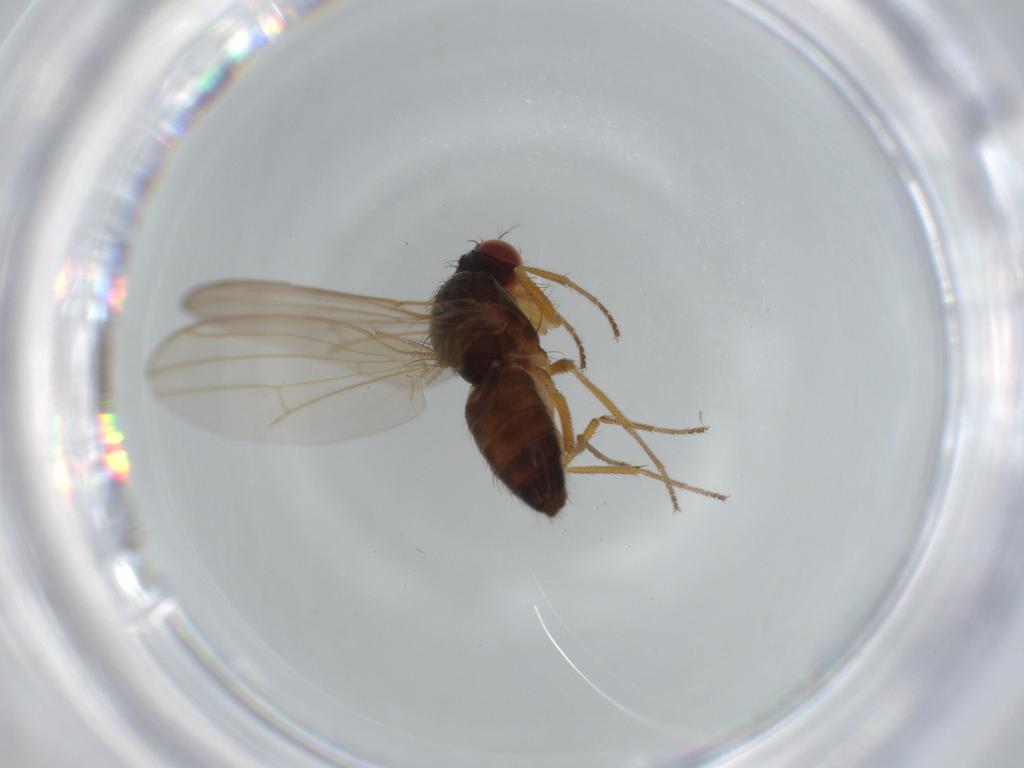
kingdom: Animalia
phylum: Arthropoda
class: Insecta
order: Diptera
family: Drosophilidae
